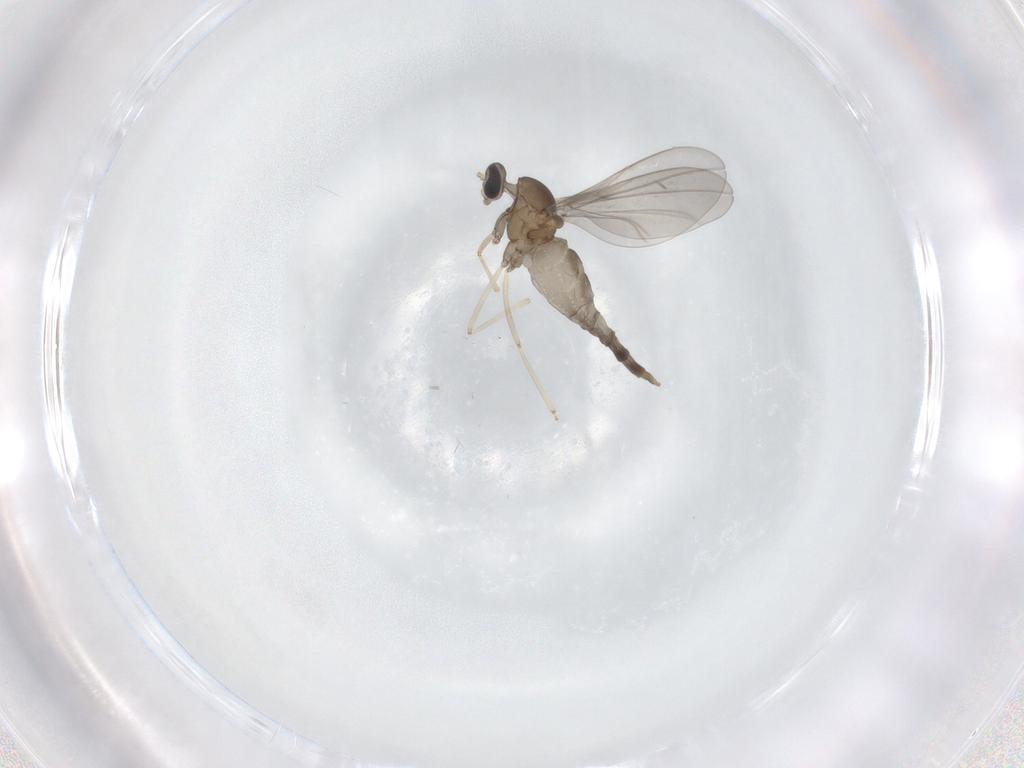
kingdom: Animalia
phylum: Arthropoda
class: Insecta
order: Diptera
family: Cecidomyiidae
